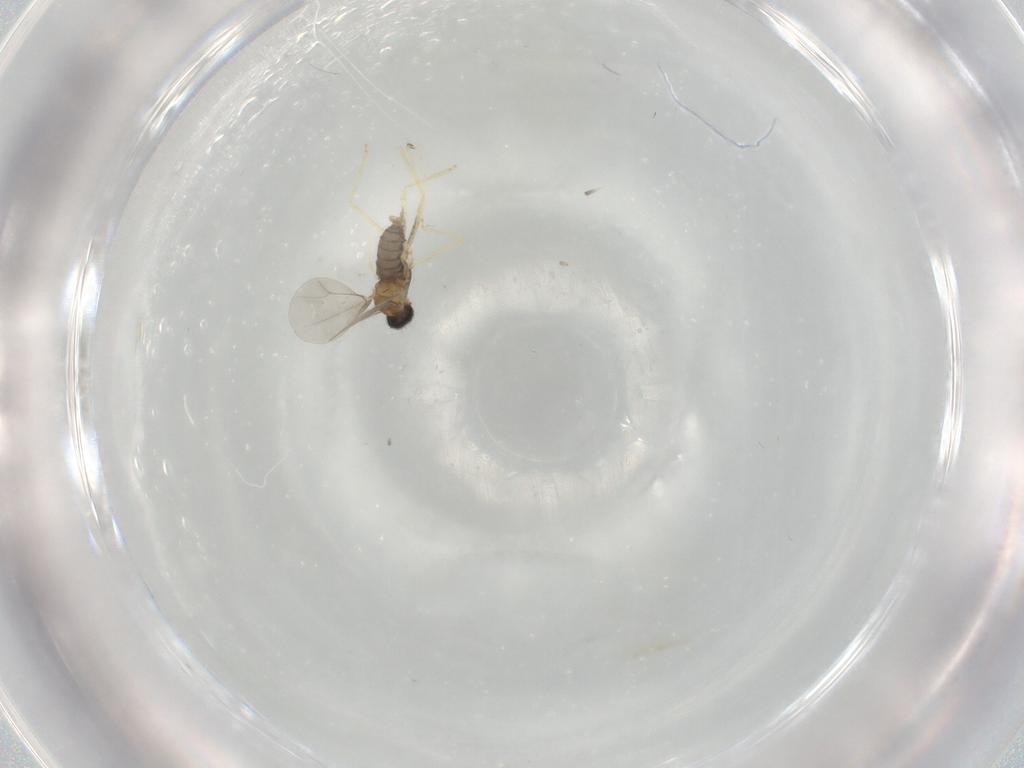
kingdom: Animalia
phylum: Arthropoda
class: Insecta
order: Diptera
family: Cecidomyiidae
